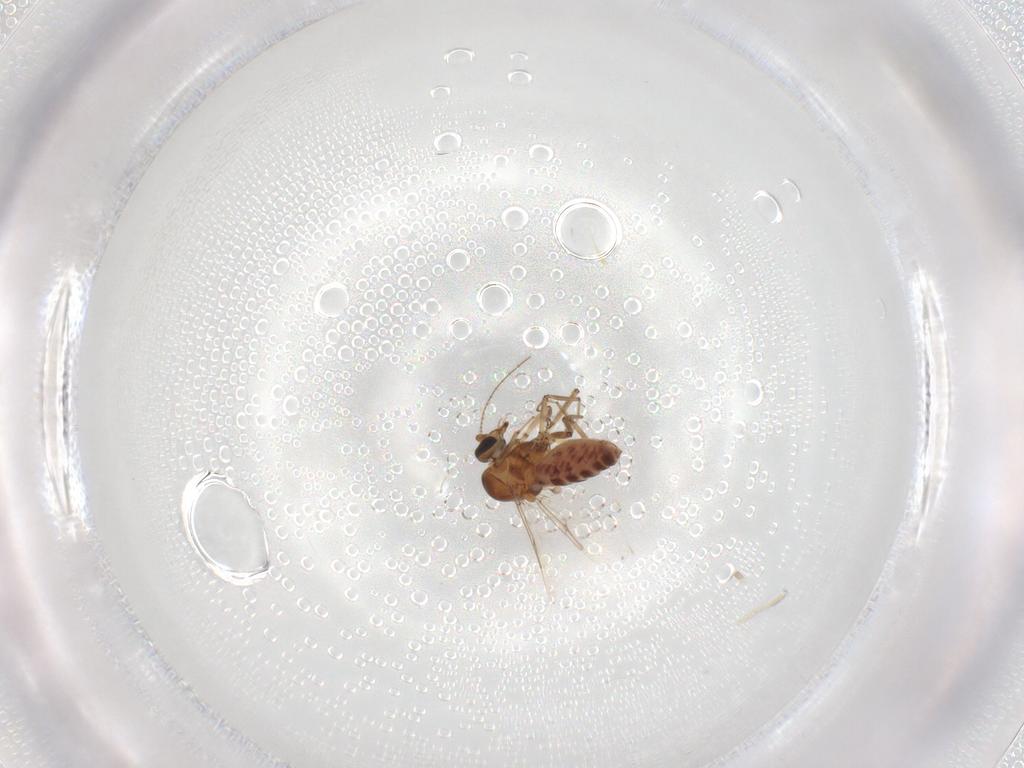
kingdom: Animalia
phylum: Arthropoda
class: Insecta
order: Diptera
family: Ceratopogonidae
